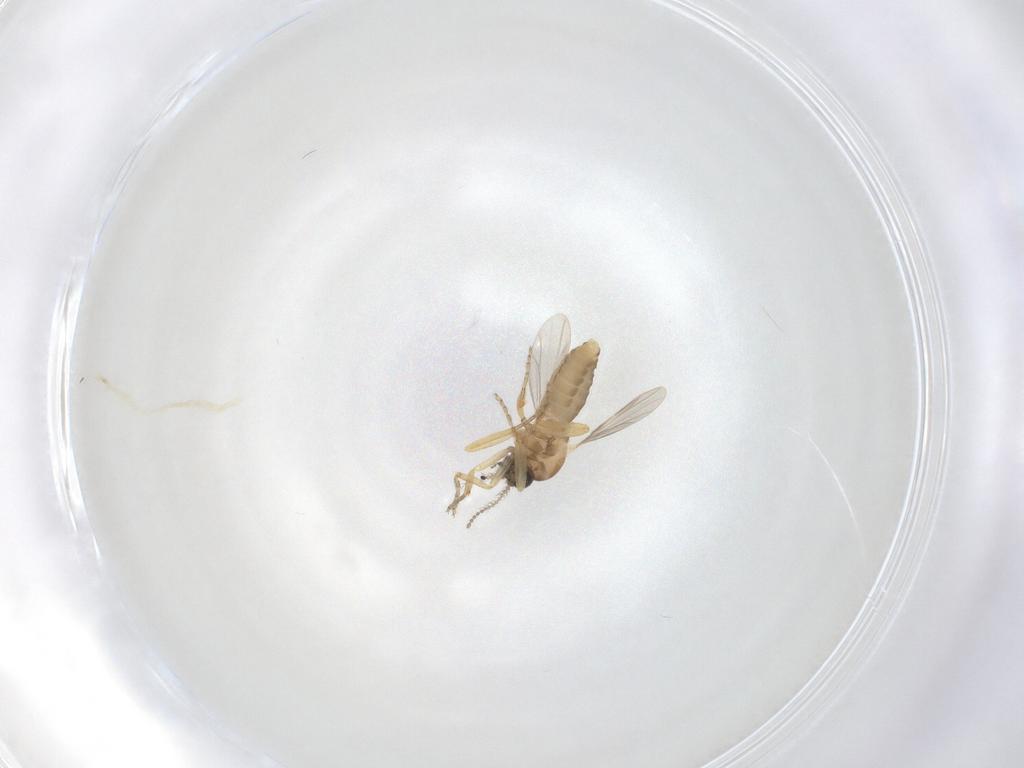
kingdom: Animalia
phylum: Arthropoda
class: Insecta
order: Diptera
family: Ceratopogonidae
